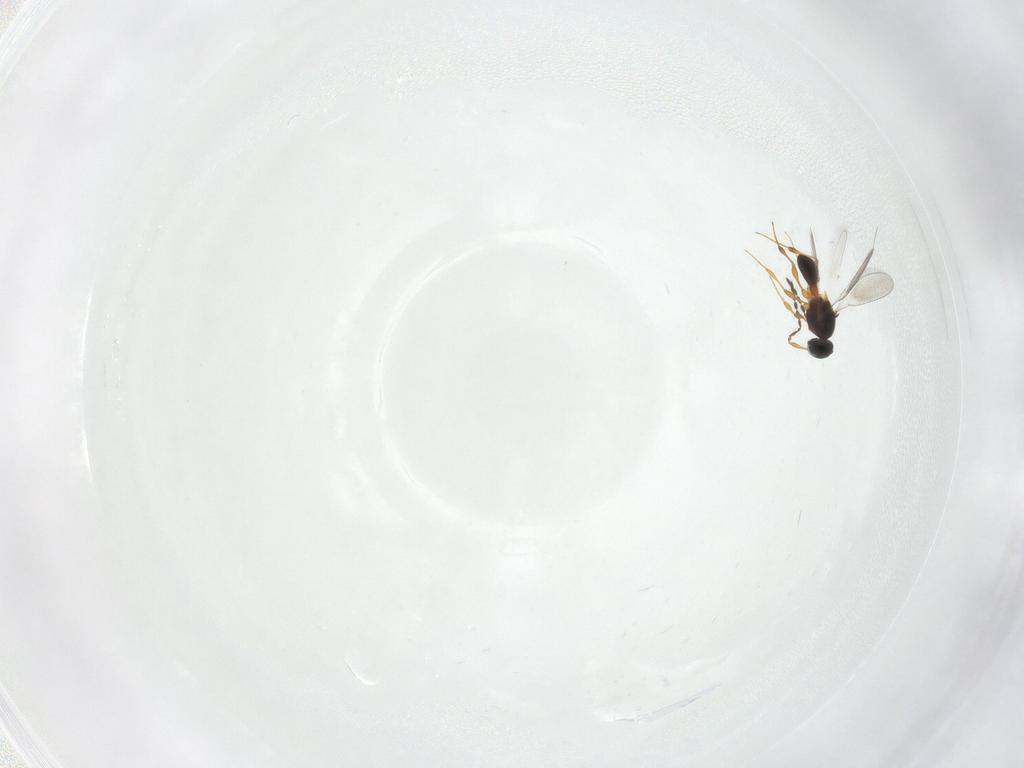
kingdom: Animalia
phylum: Arthropoda
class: Insecta
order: Hymenoptera
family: Platygastridae
